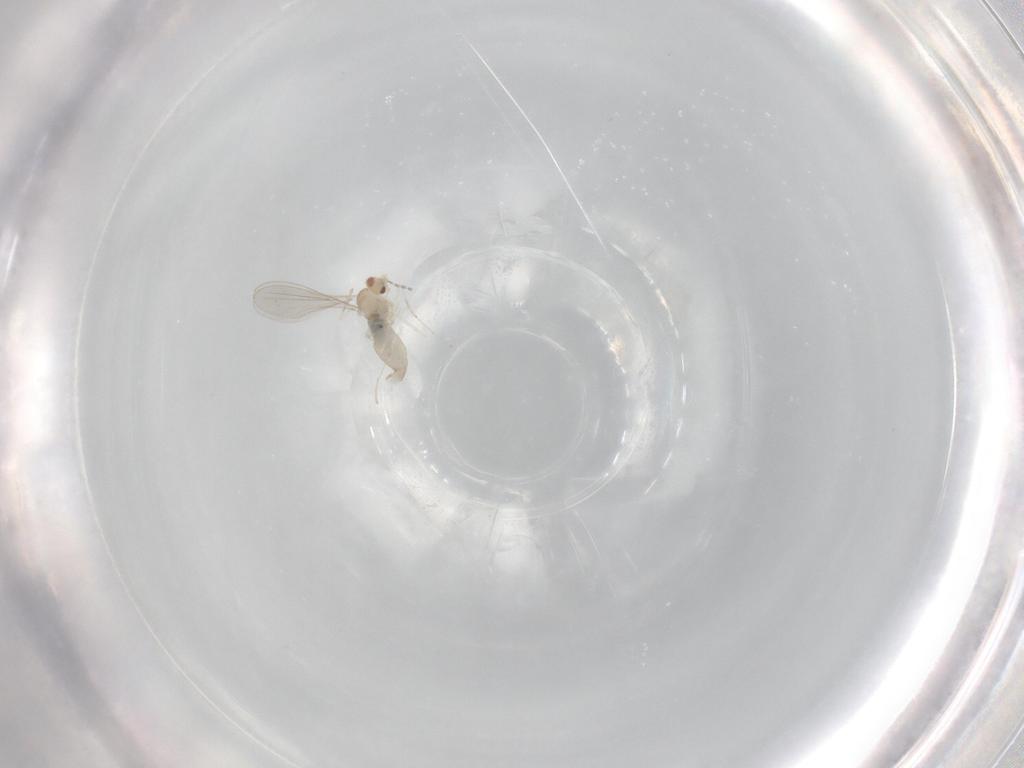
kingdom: Animalia
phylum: Arthropoda
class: Insecta
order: Diptera
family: Cecidomyiidae
